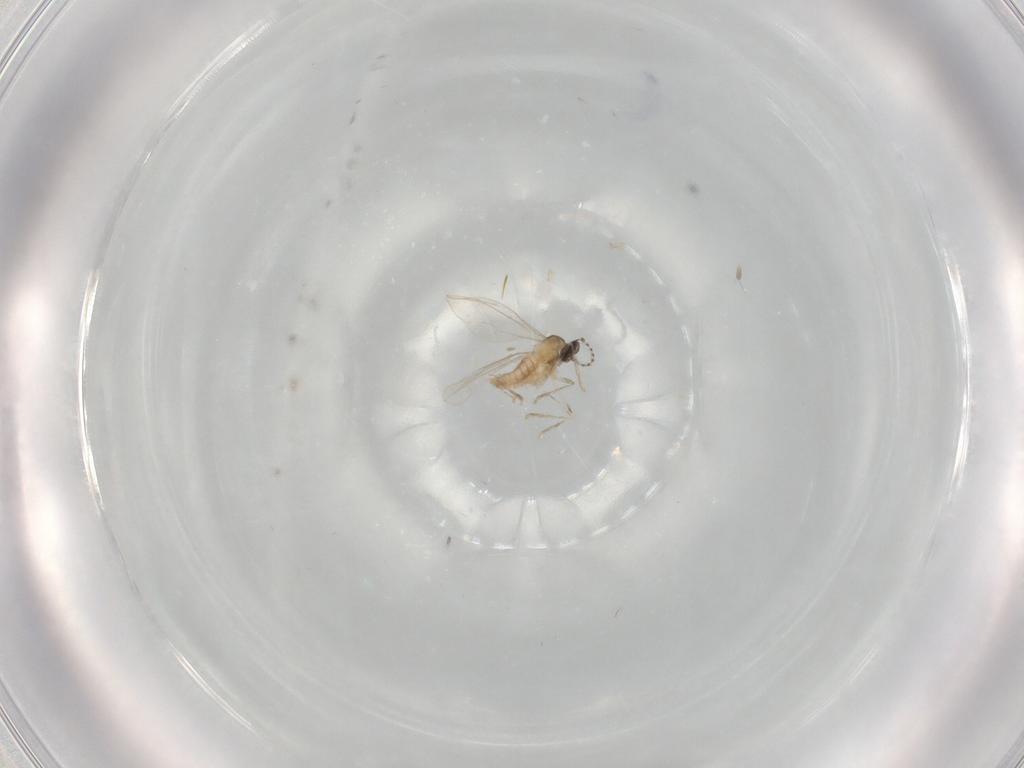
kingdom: Animalia
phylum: Arthropoda
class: Insecta
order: Diptera
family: Cecidomyiidae
